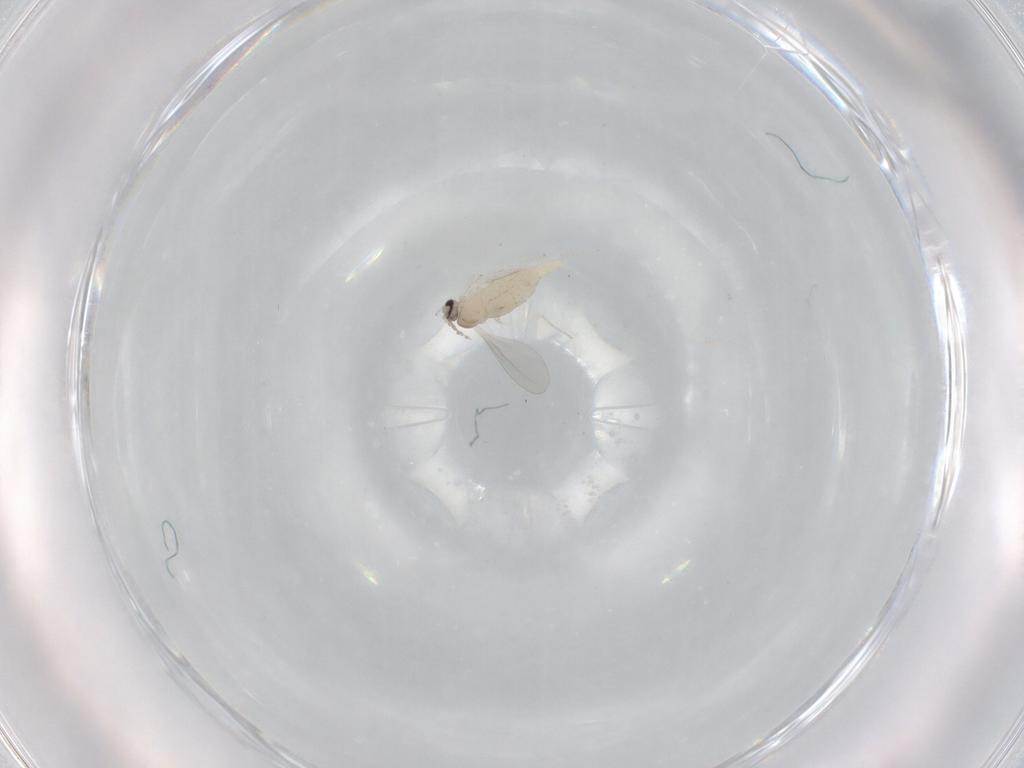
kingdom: Animalia
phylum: Arthropoda
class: Insecta
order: Diptera
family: Cecidomyiidae
